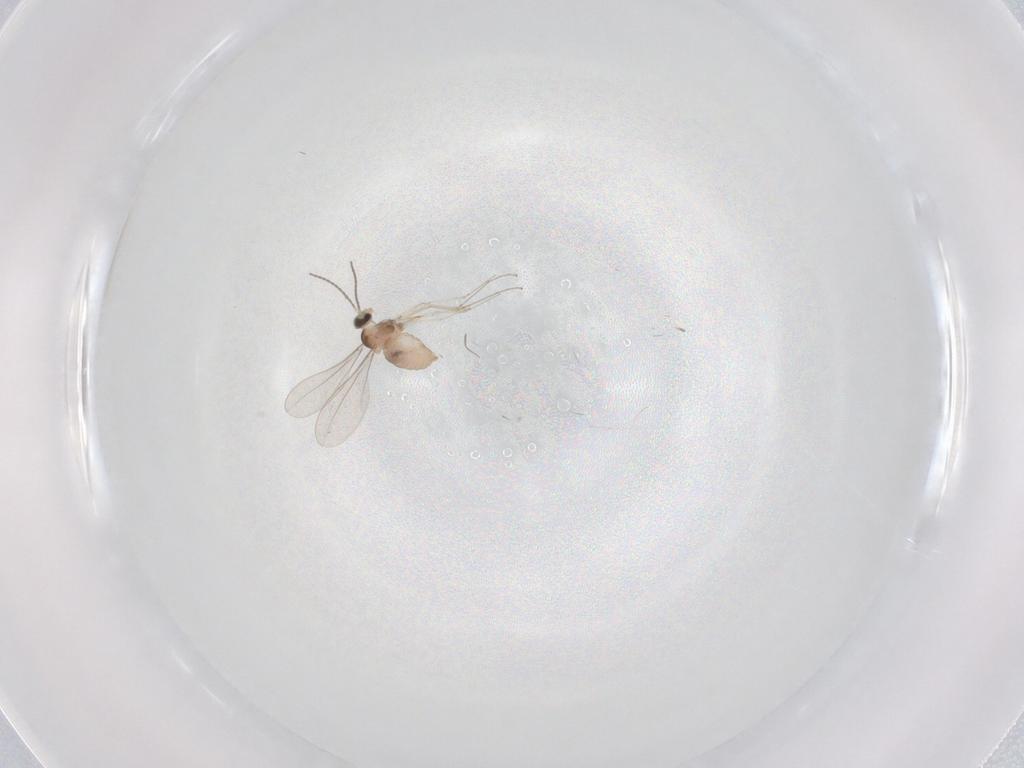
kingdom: Animalia
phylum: Arthropoda
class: Insecta
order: Diptera
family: Cecidomyiidae
